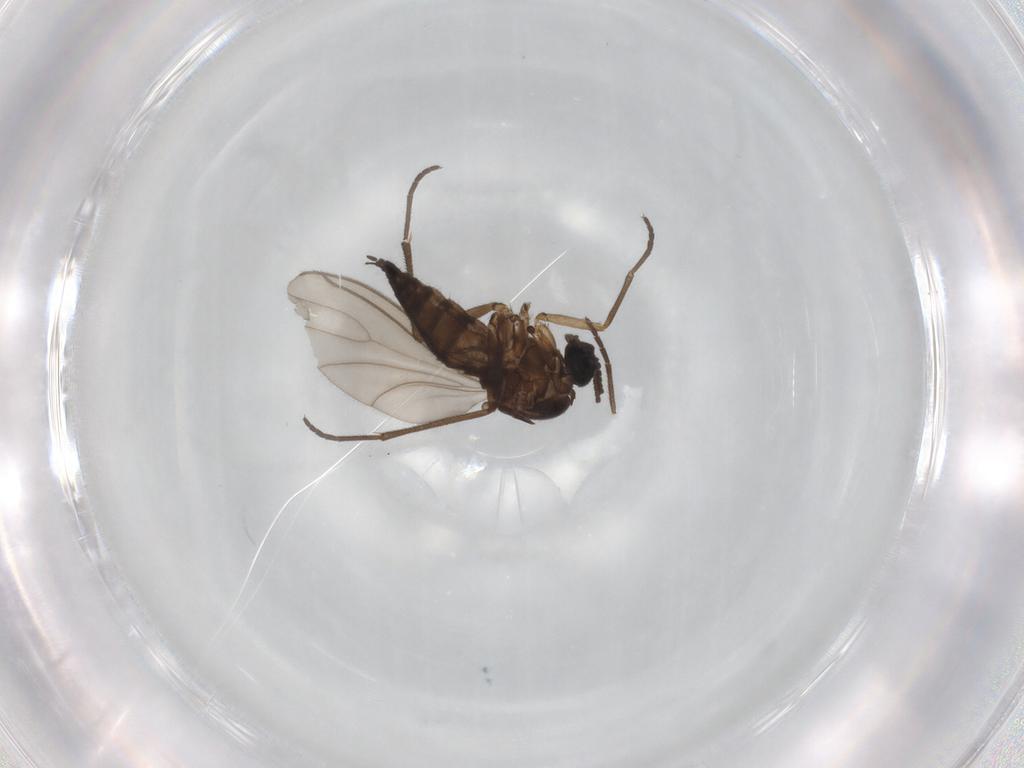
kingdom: Animalia
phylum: Arthropoda
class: Insecta
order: Diptera
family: Sciaridae
